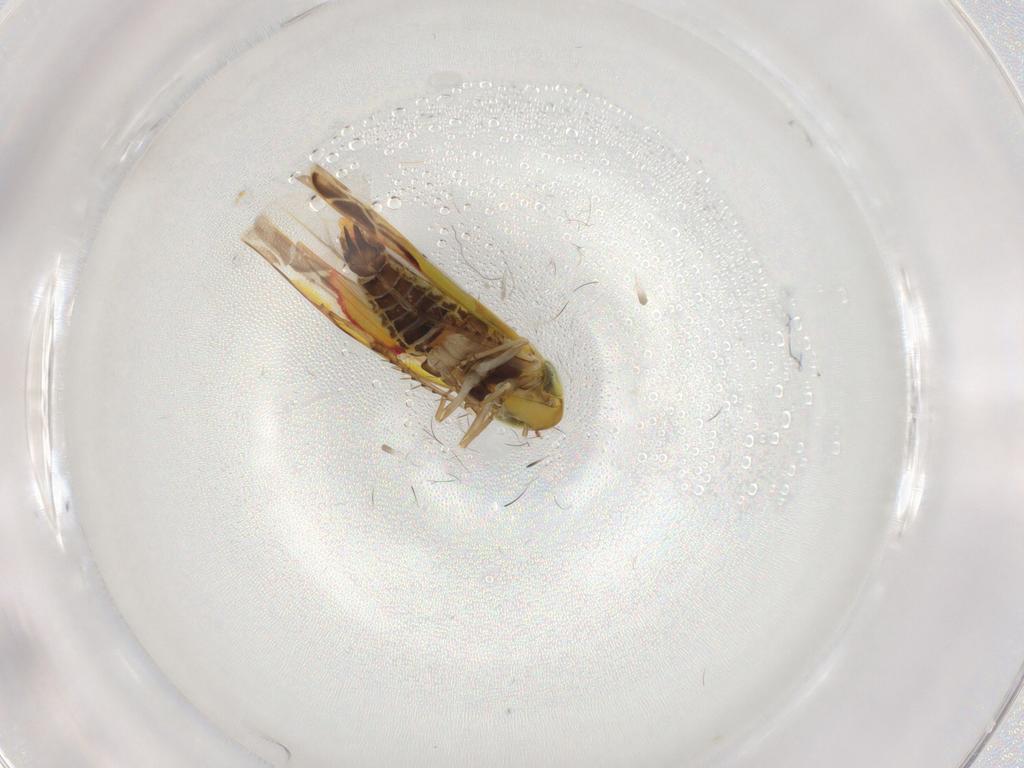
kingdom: Animalia
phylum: Arthropoda
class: Insecta
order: Hemiptera
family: Cicadellidae
